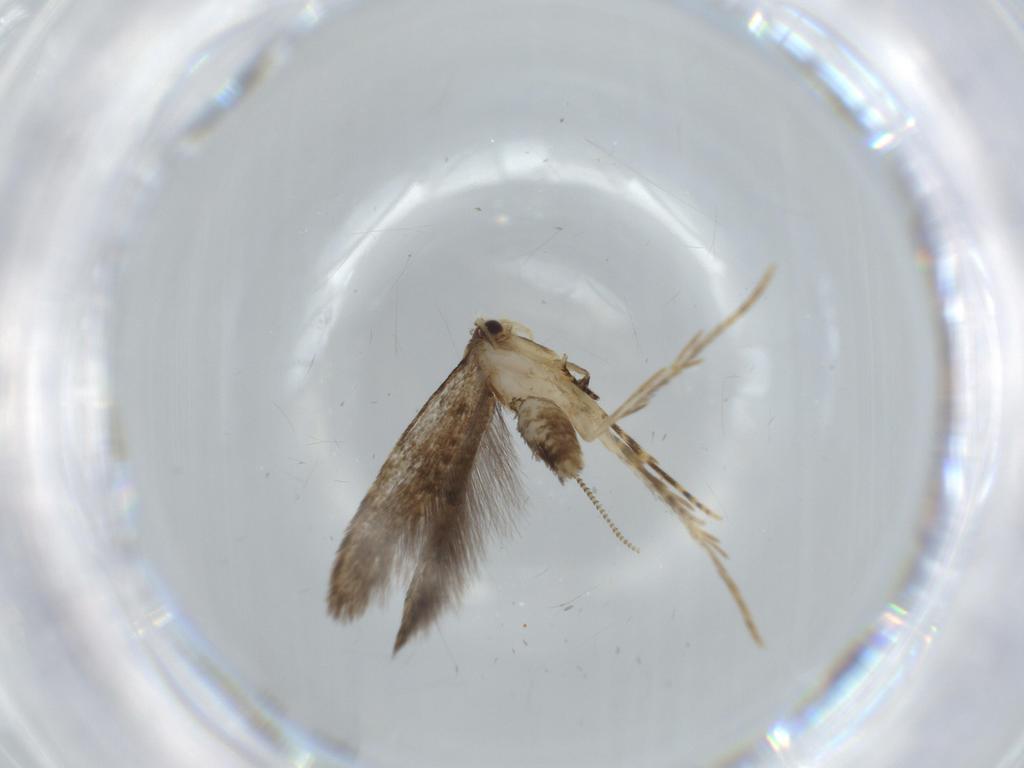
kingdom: Animalia
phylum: Arthropoda
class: Insecta
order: Lepidoptera
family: Tineidae
